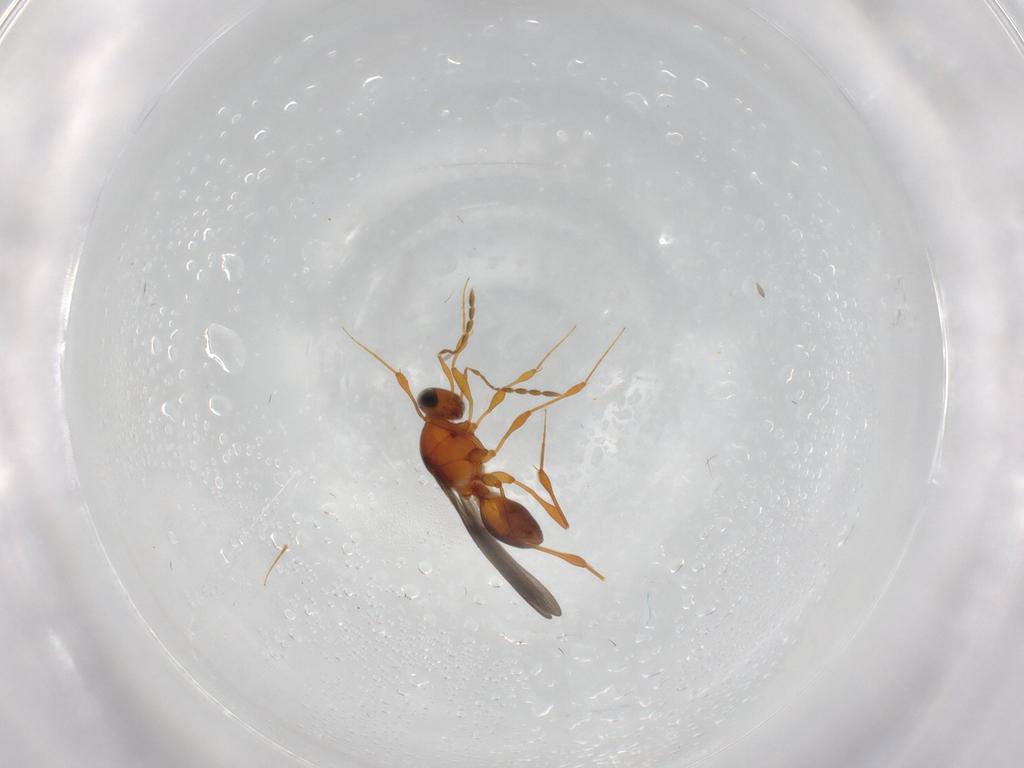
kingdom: Animalia
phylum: Arthropoda
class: Insecta
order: Hymenoptera
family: Platygastridae
